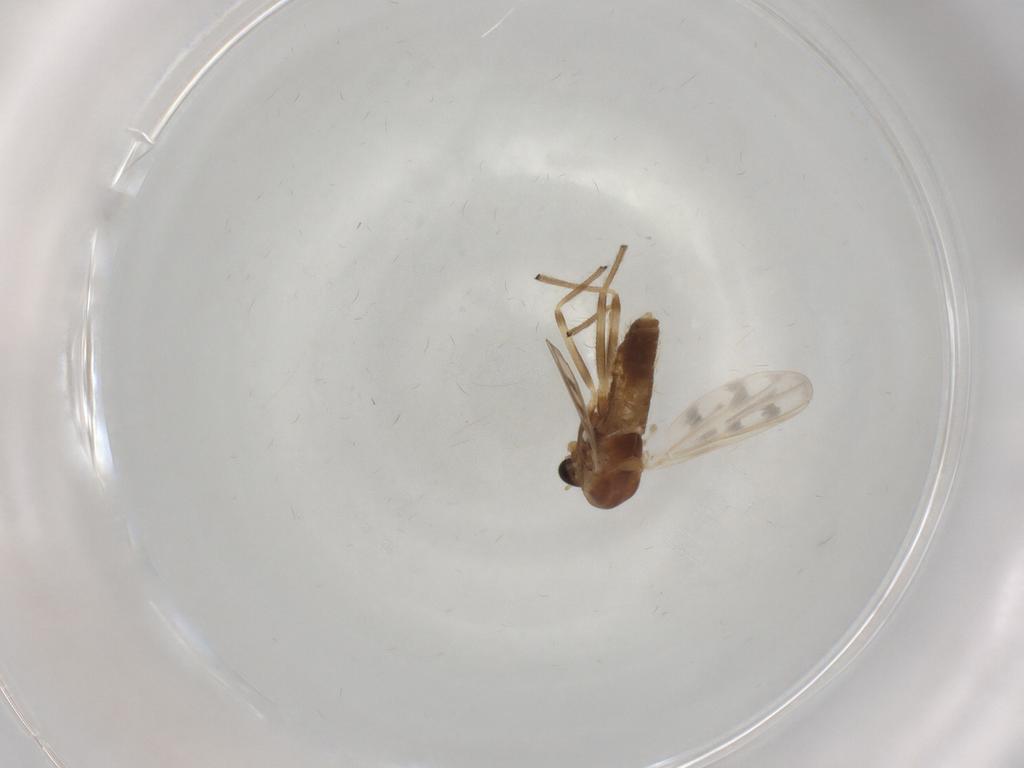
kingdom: Animalia
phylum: Arthropoda
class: Insecta
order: Diptera
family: Chironomidae
